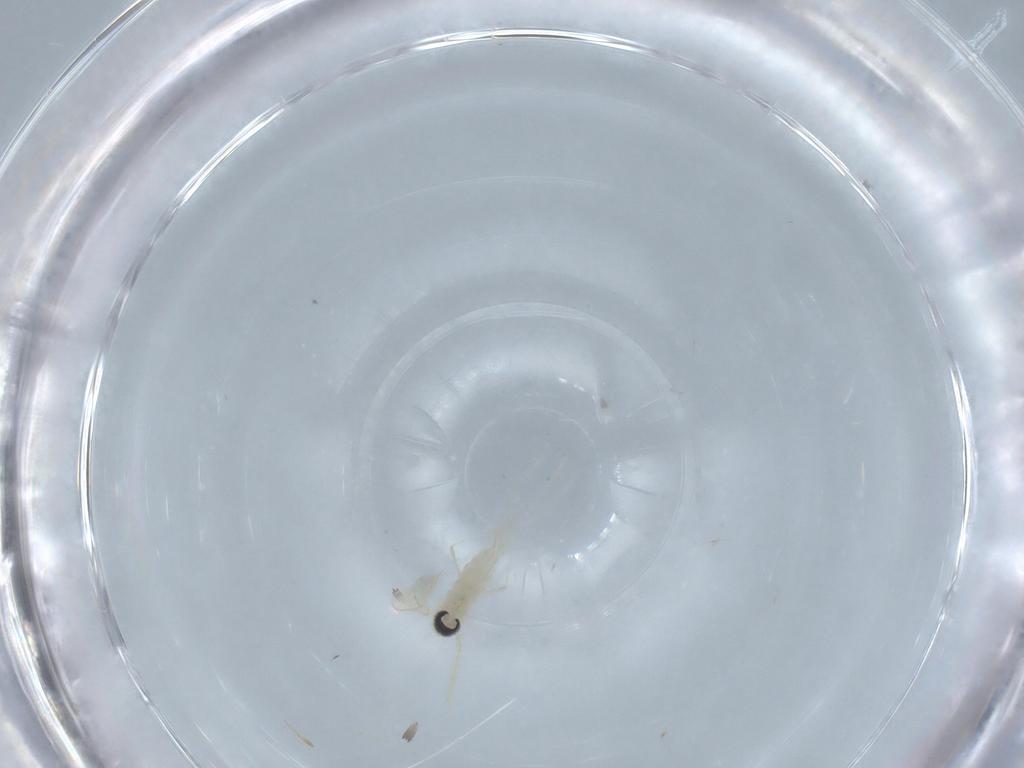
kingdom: Animalia
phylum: Arthropoda
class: Insecta
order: Diptera
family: Cecidomyiidae
